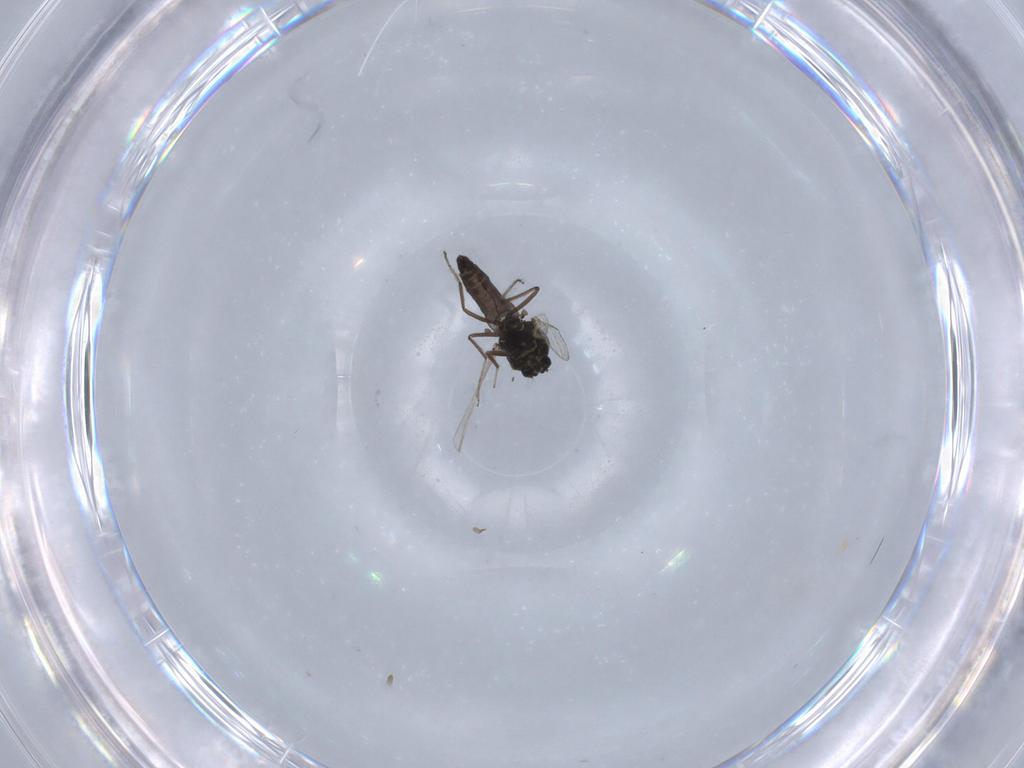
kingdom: Animalia
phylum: Arthropoda
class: Insecta
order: Diptera
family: Ceratopogonidae
